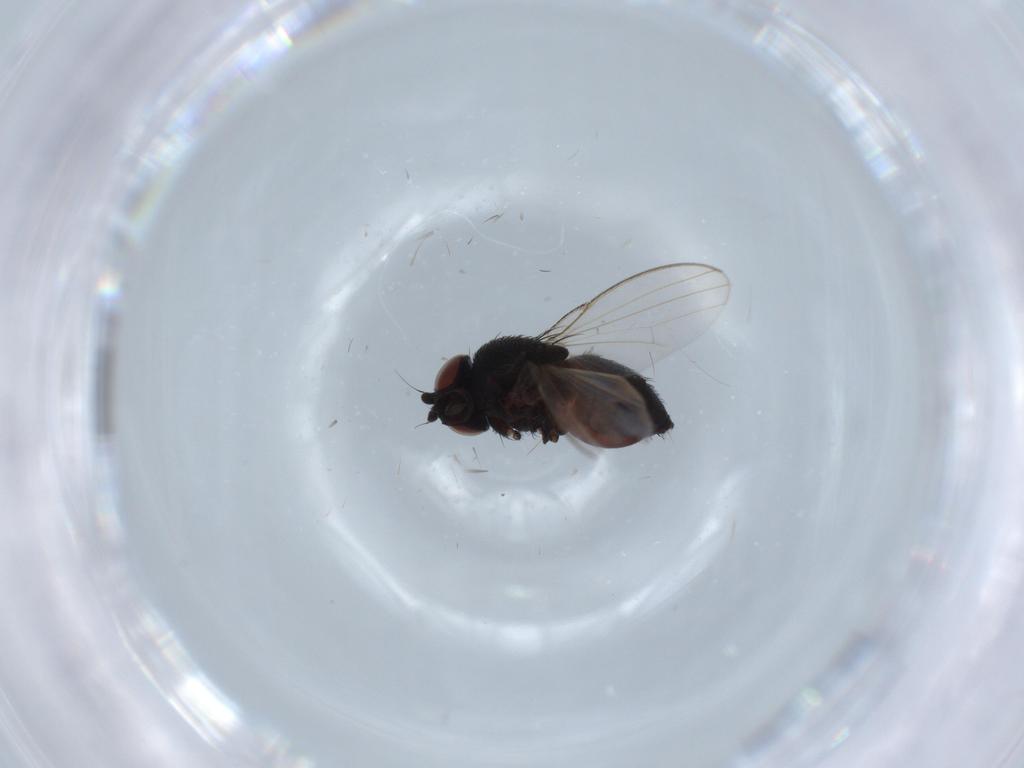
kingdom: Animalia
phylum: Arthropoda
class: Insecta
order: Diptera
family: Milichiidae
